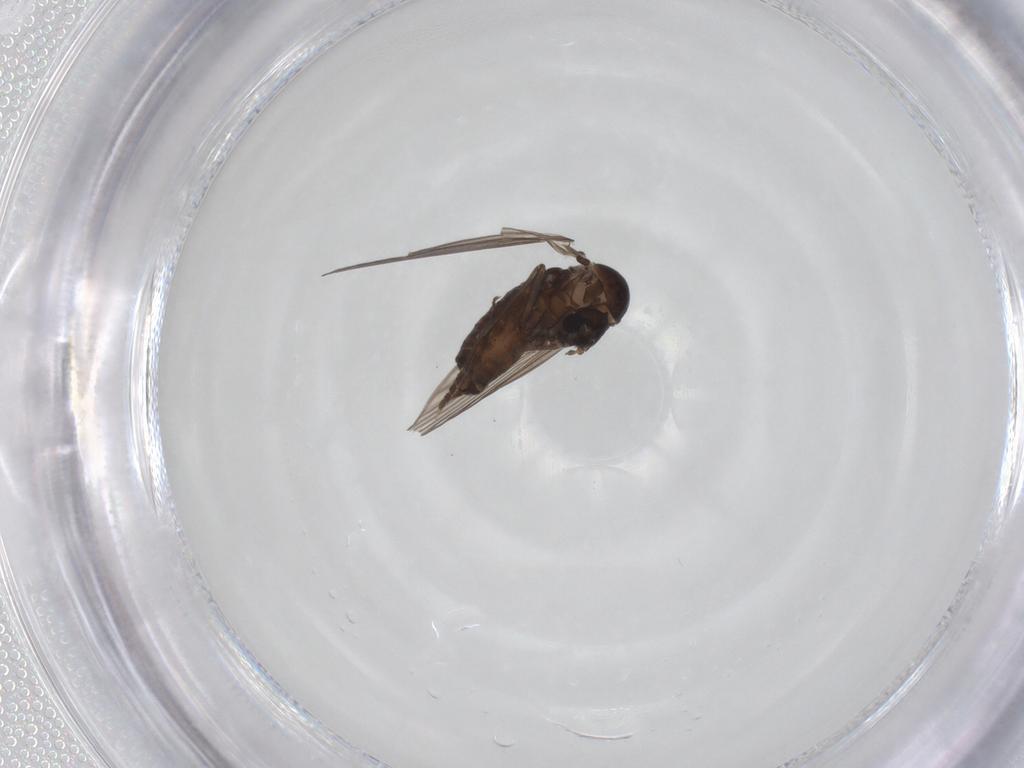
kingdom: Animalia
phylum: Arthropoda
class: Insecta
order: Diptera
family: Psychodidae
